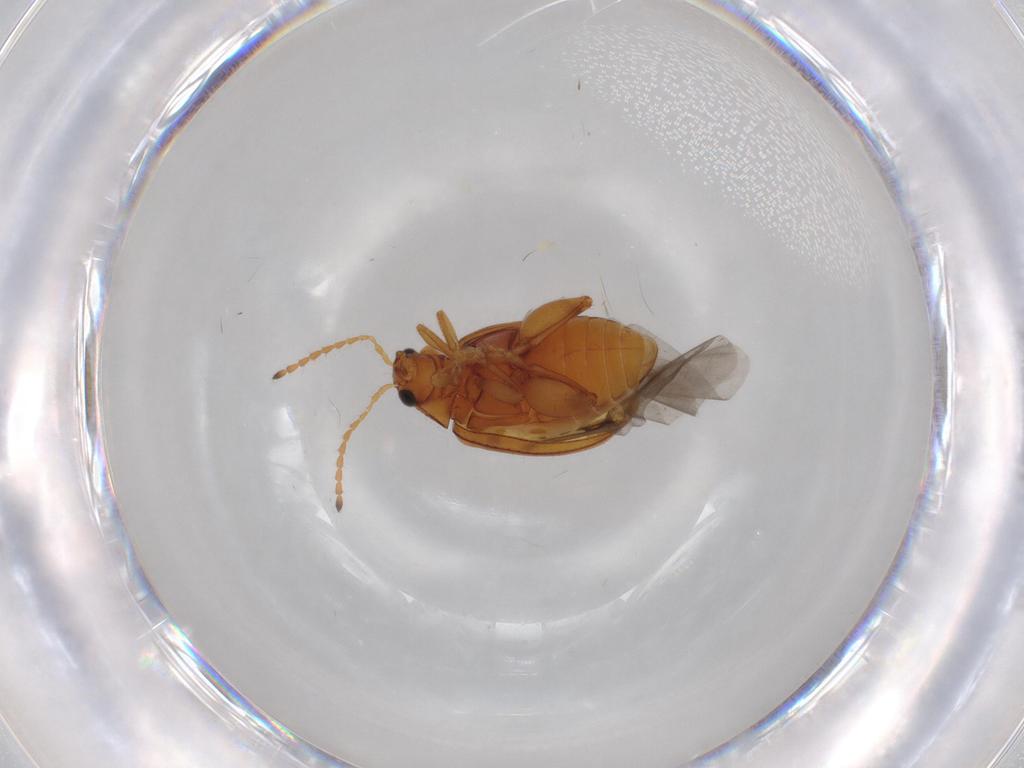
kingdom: Animalia
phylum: Arthropoda
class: Insecta
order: Coleoptera
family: Chrysomelidae
